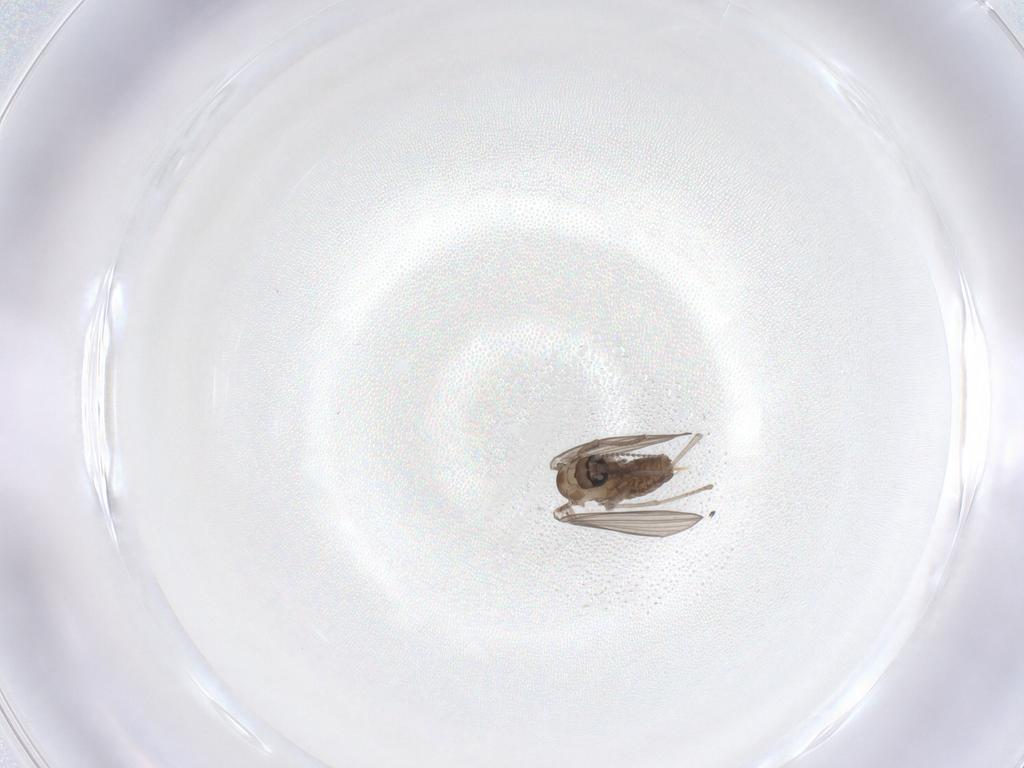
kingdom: Animalia
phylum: Arthropoda
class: Insecta
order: Diptera
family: Psychodidae
